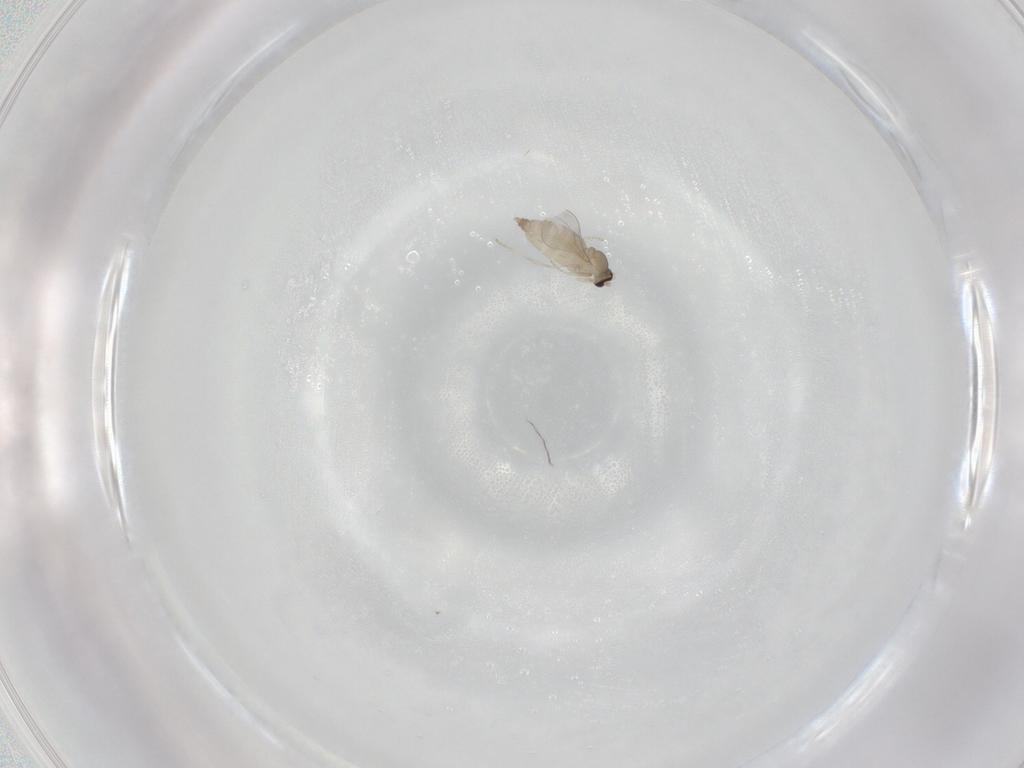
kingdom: Animalia
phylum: Arthropoda
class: Insecta
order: Diptera
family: Cecidomyiidae
